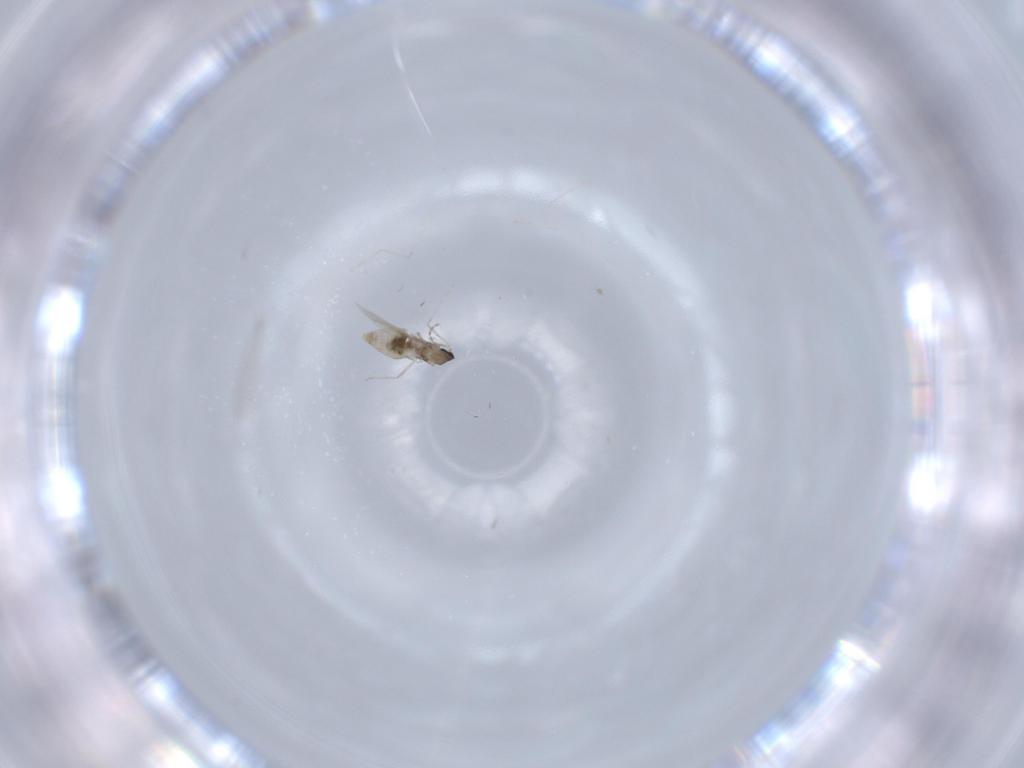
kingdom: Animalia
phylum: Arthropoda
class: Insecta
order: Diptera
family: Cecidomyiidae
